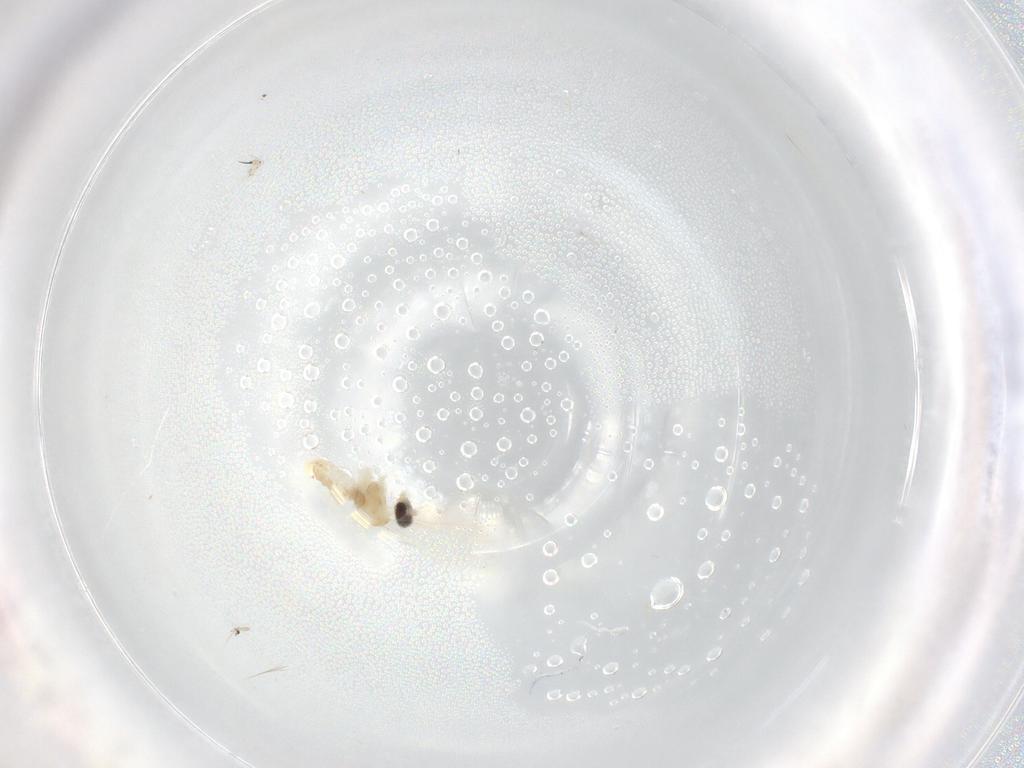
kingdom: Animalia
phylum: Arthropoda
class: Insecta
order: Diptera
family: Cecidomyiidae
